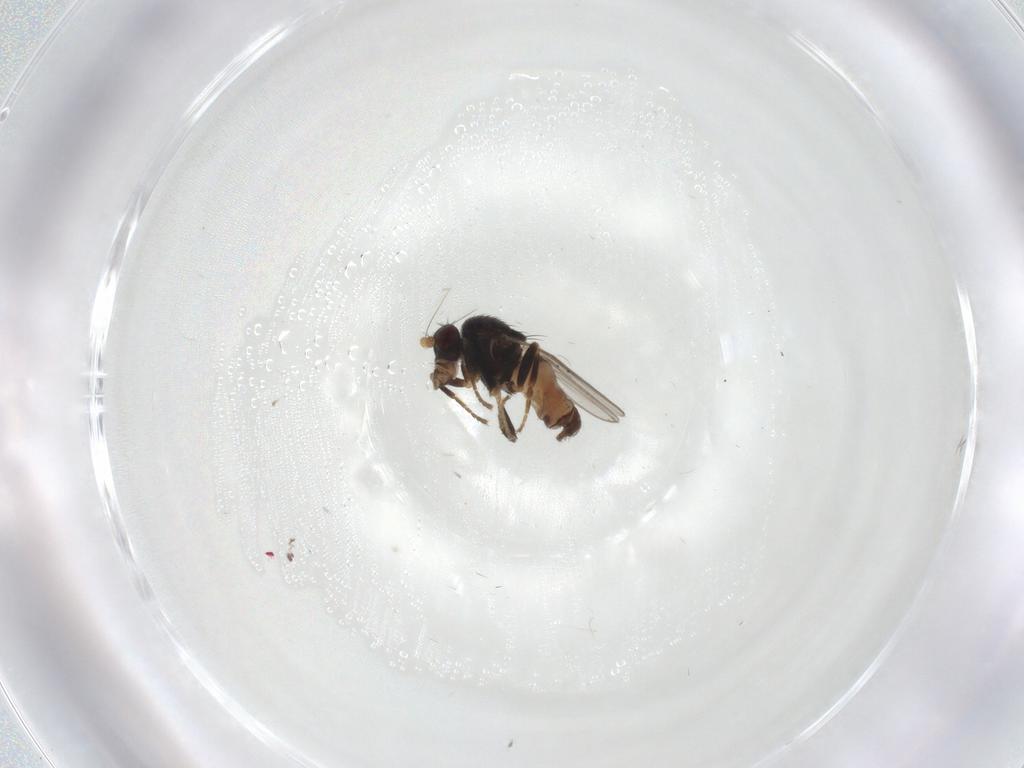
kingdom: Animalia
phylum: Arthropoda
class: Insecta
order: Diptera
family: Sphaeroceridae
